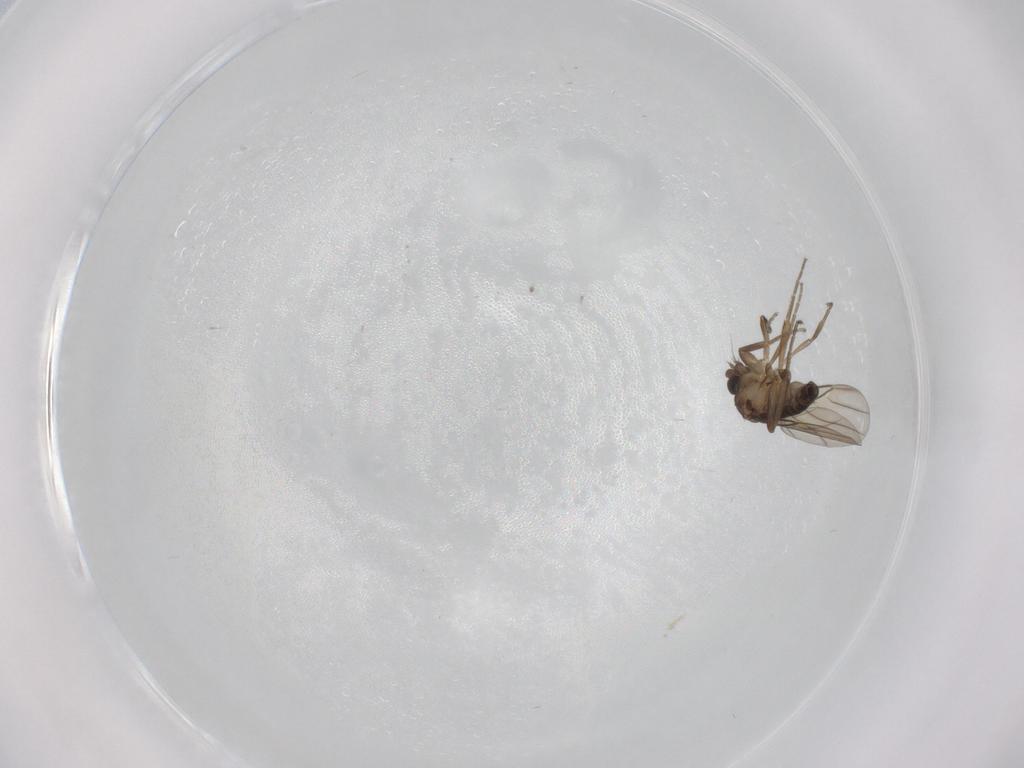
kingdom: Animalia
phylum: Arthropoda
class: Insecta
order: Diptera
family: Phoridae
